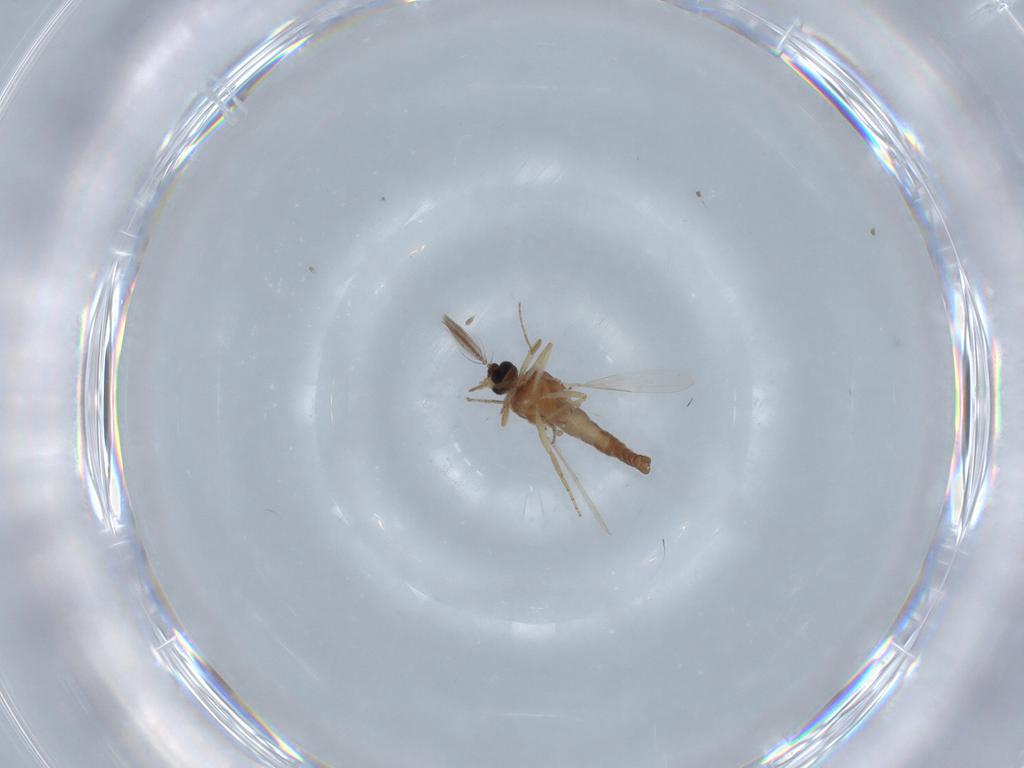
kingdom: Animalia
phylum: Arthropoda
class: Insecta
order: Diptera
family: Ceratopogonidae
